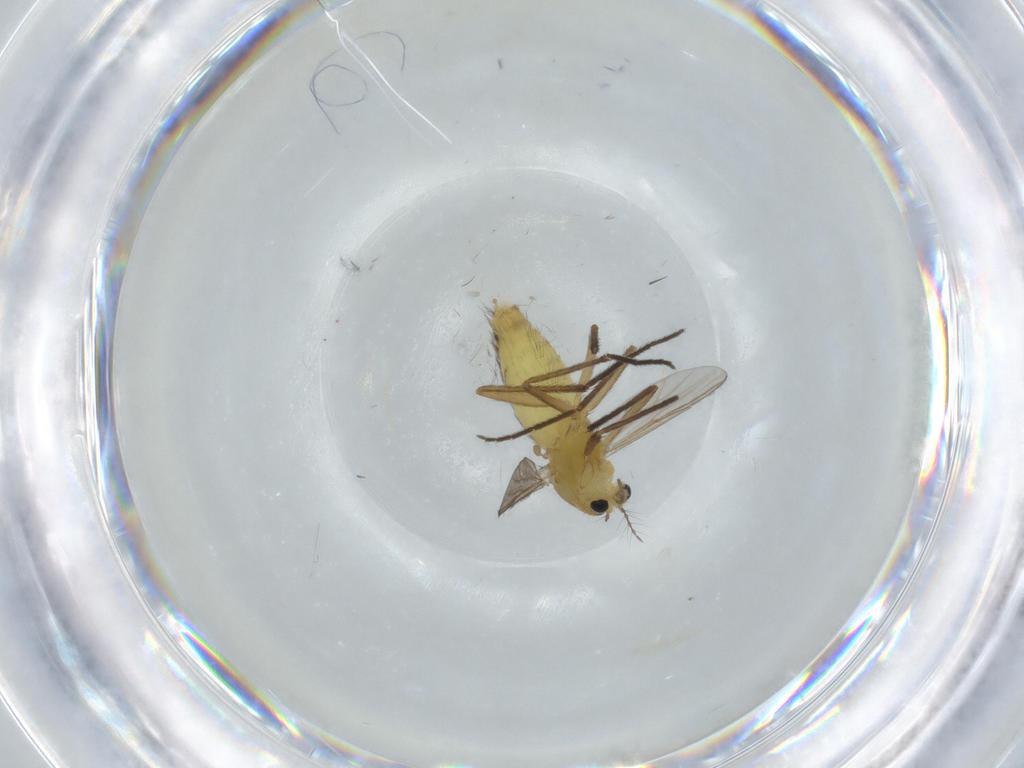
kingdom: Animalia
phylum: Arthropoda
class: Insecta
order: Diptera
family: Chironomidae
